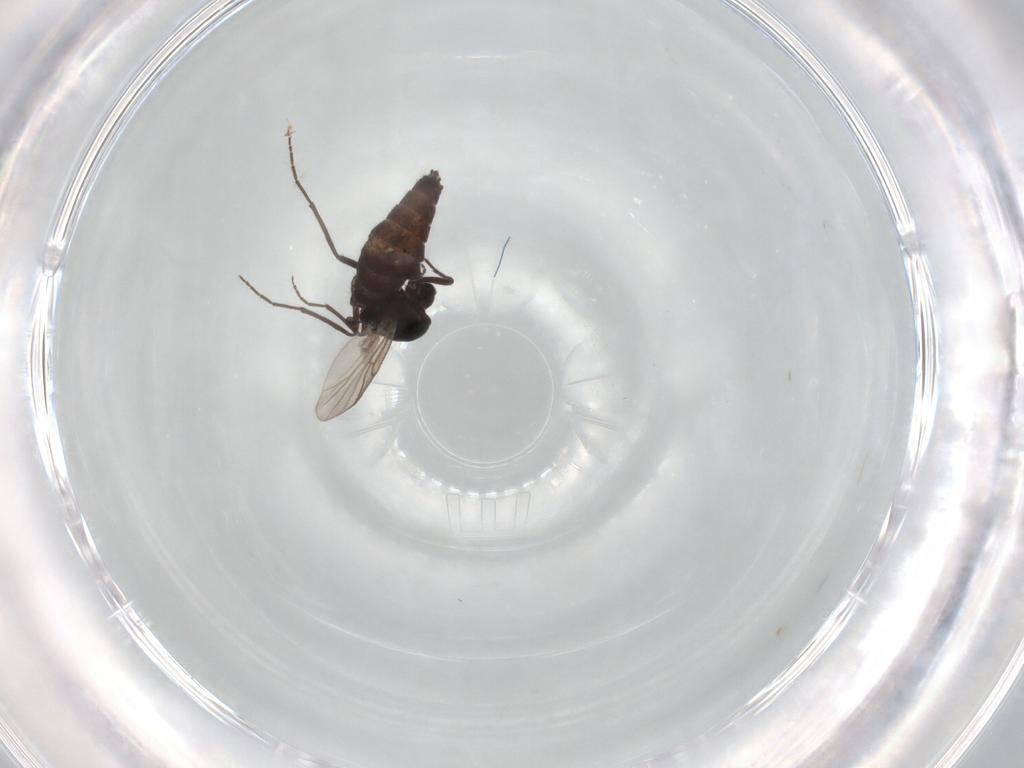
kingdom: Animalia
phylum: Arthropoda
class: Insecta
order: Diptera
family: Chironomidae
